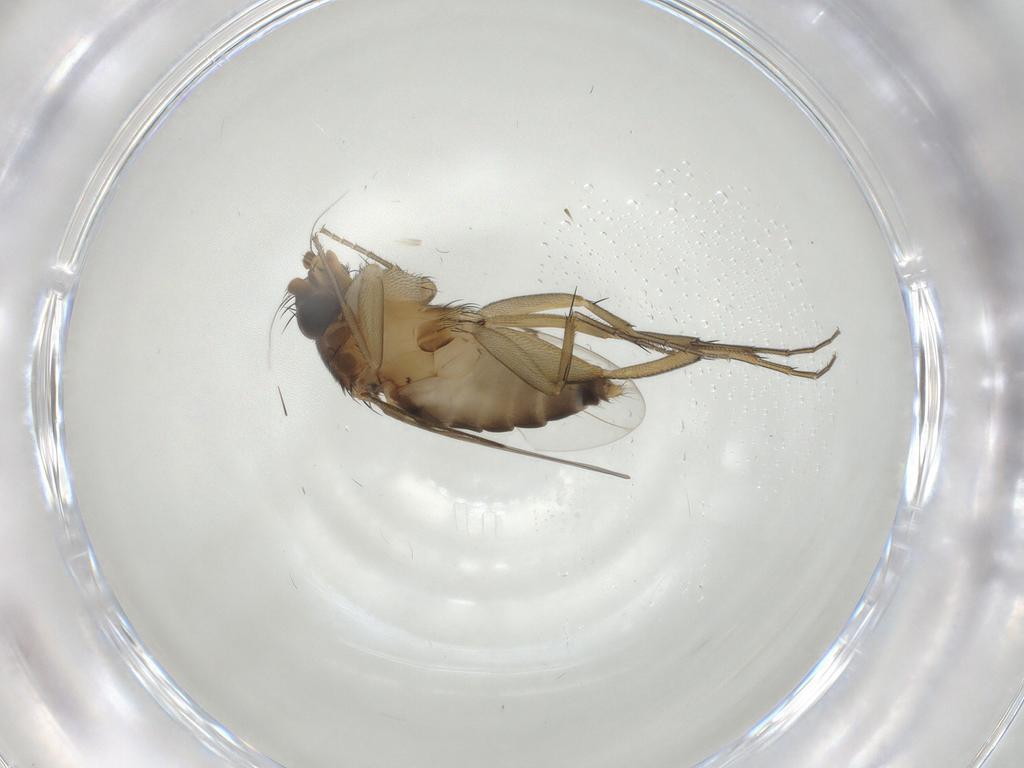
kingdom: Animalia
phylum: Arthropoda
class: Insecta
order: Diptera
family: Phoridae
